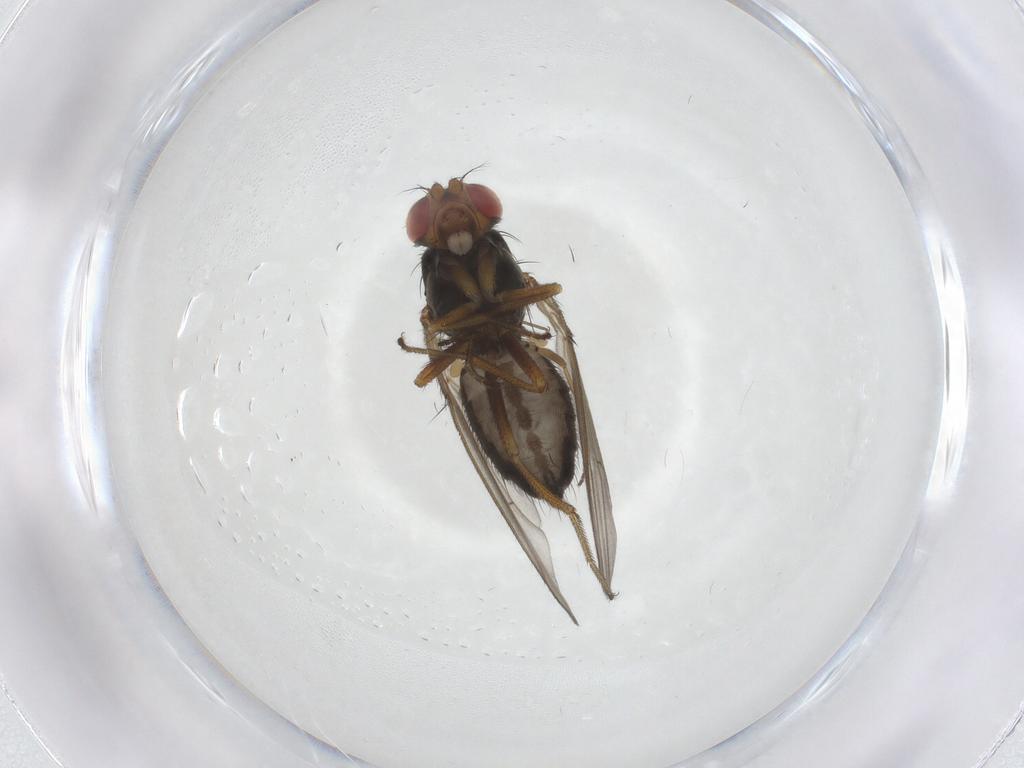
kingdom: Animalia
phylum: Arthropoda
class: Insecta
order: Diptera
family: Drosophilidae
